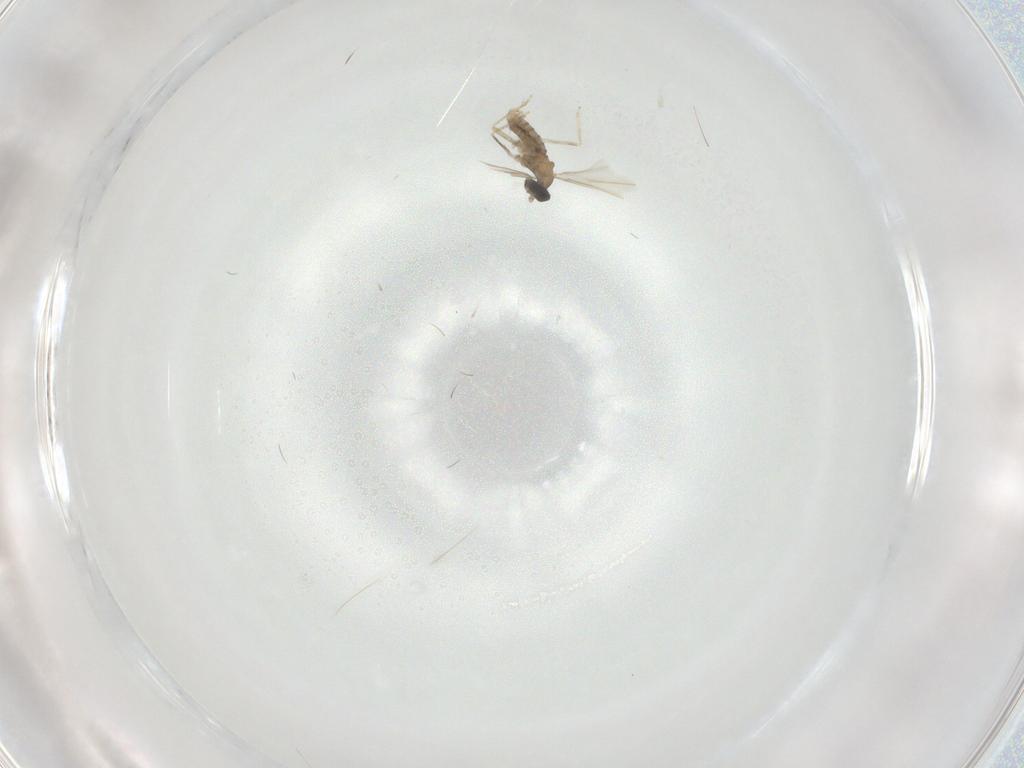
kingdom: Animalia
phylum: Arthropoda
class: Insecta
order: Diptera
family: Cecidomyiidae
